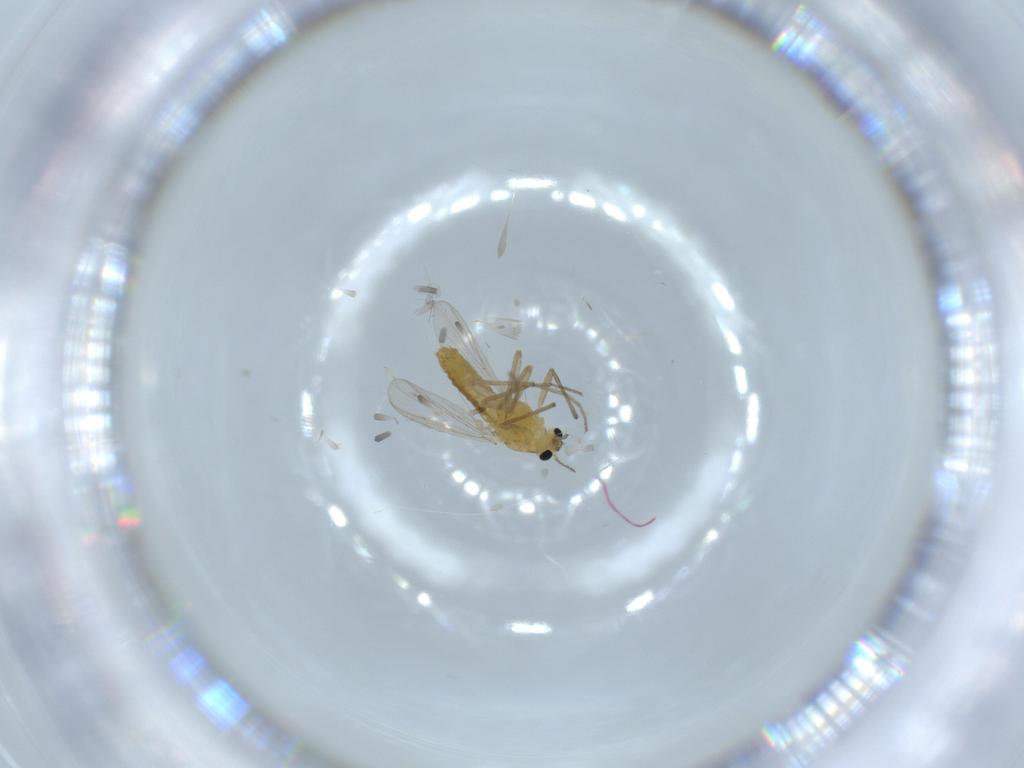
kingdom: Animalia
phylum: Arthropoda
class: Insecta
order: Diptera
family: Chironomidae
